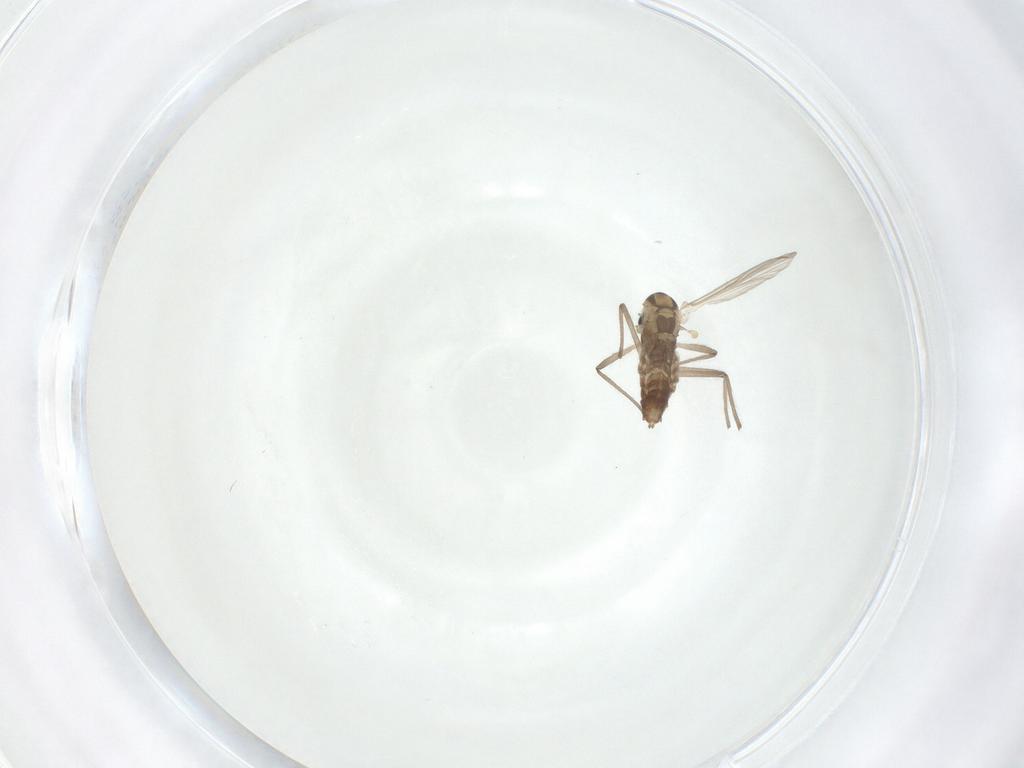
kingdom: Animalia
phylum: Arthropoda
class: Insecta
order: Diptera
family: Chironomidae
